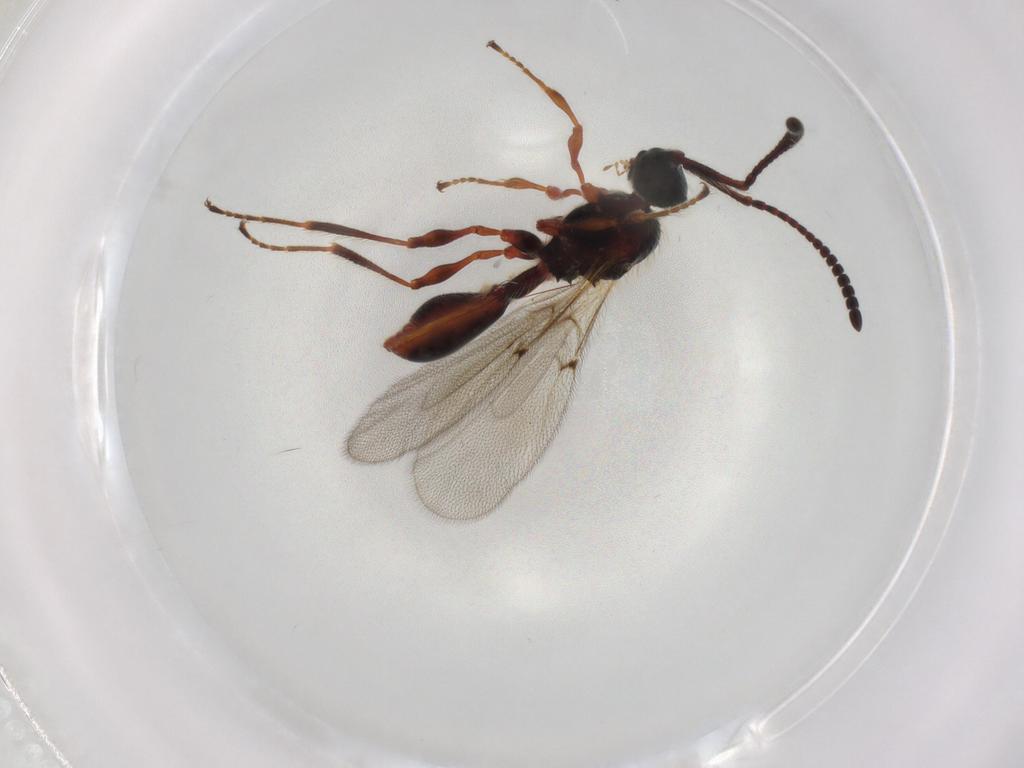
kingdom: Animalia
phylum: Arthropoda
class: Insecta
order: Hymenoptera
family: Diapriidae
